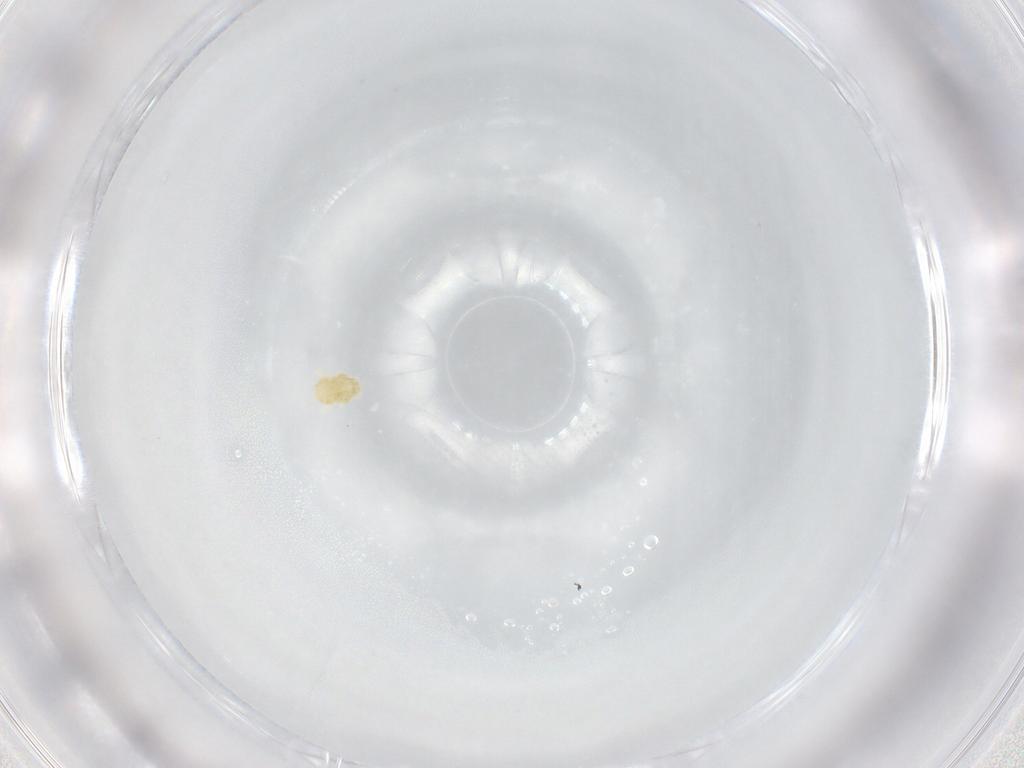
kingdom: Animalia
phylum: Arthropoda
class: Arachnida
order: Trombidiformes
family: Eupodidae
